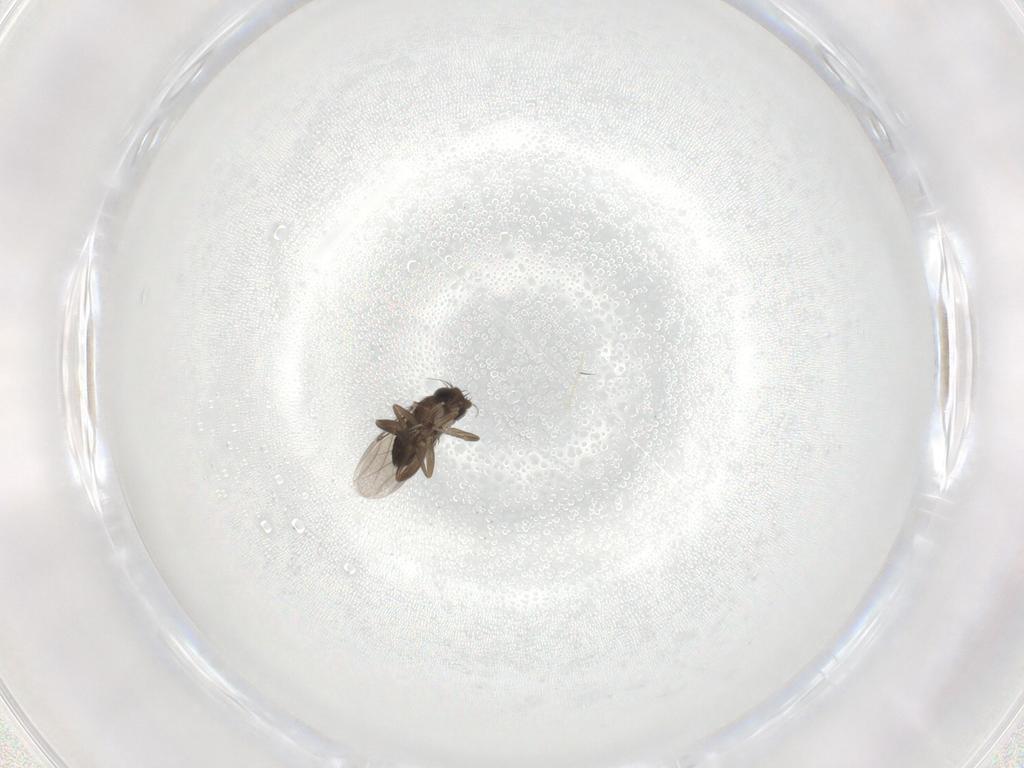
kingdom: Animalia
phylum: Arthropoda
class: Insecta
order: Diptera
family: Phoridae
